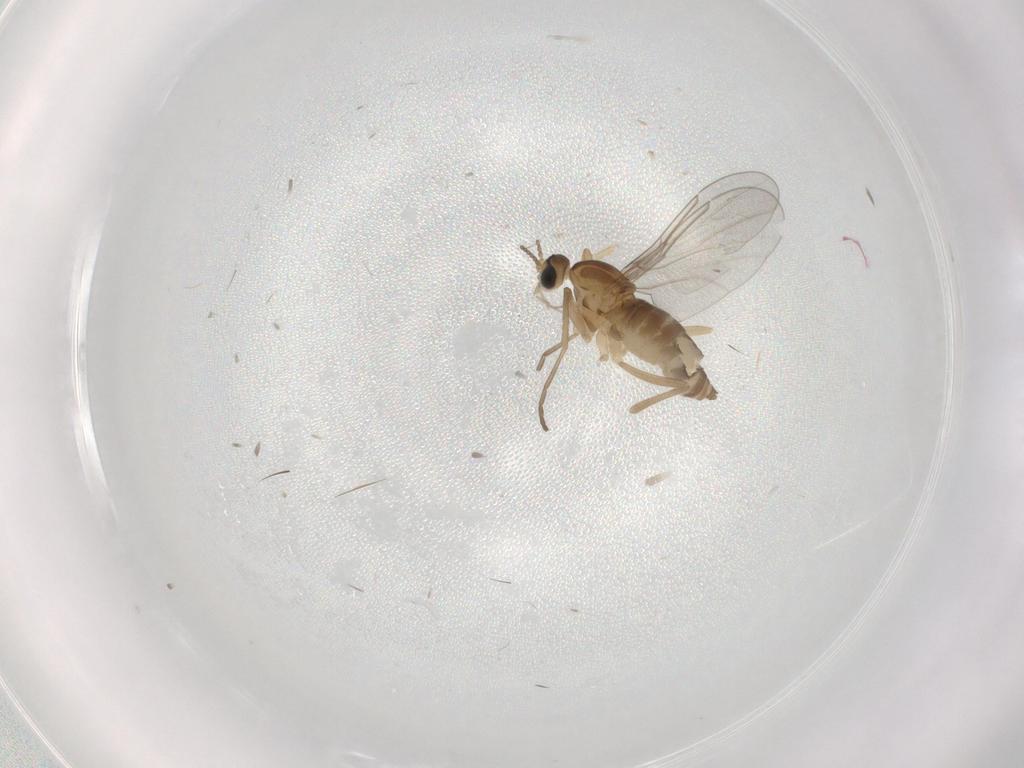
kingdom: Animalia
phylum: Arthropoda
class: Insecta
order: Diptera
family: Cecidomyiidae
